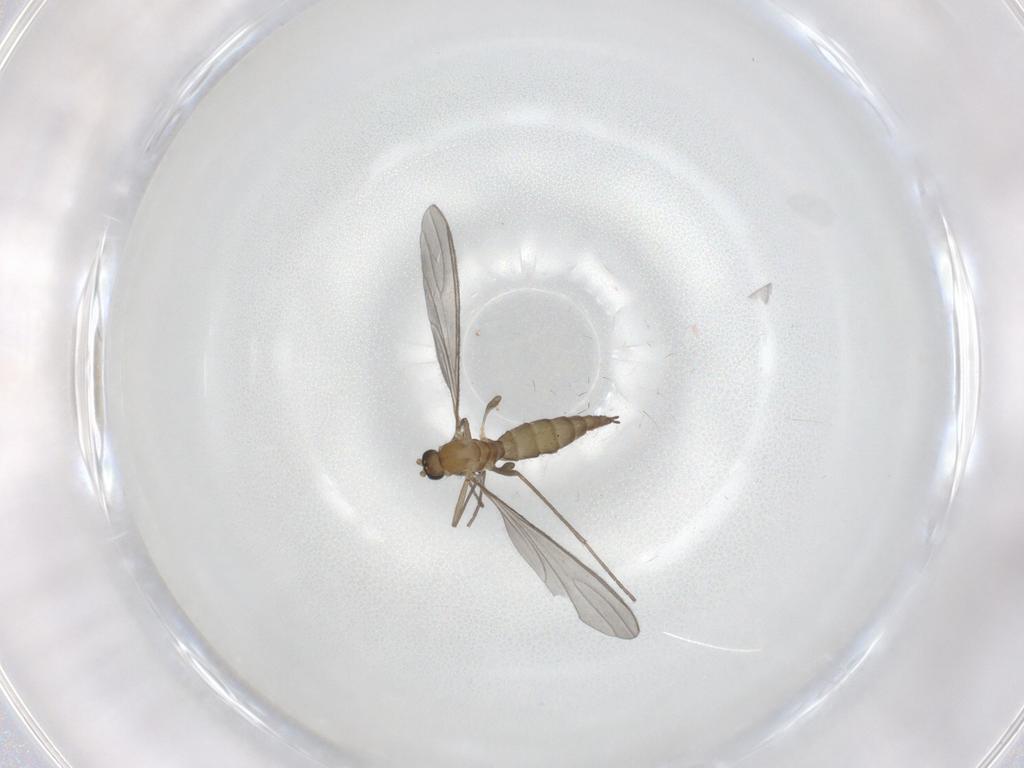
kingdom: Animalia
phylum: Arthropoda
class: Insecta
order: Diptera
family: Sciaridae
